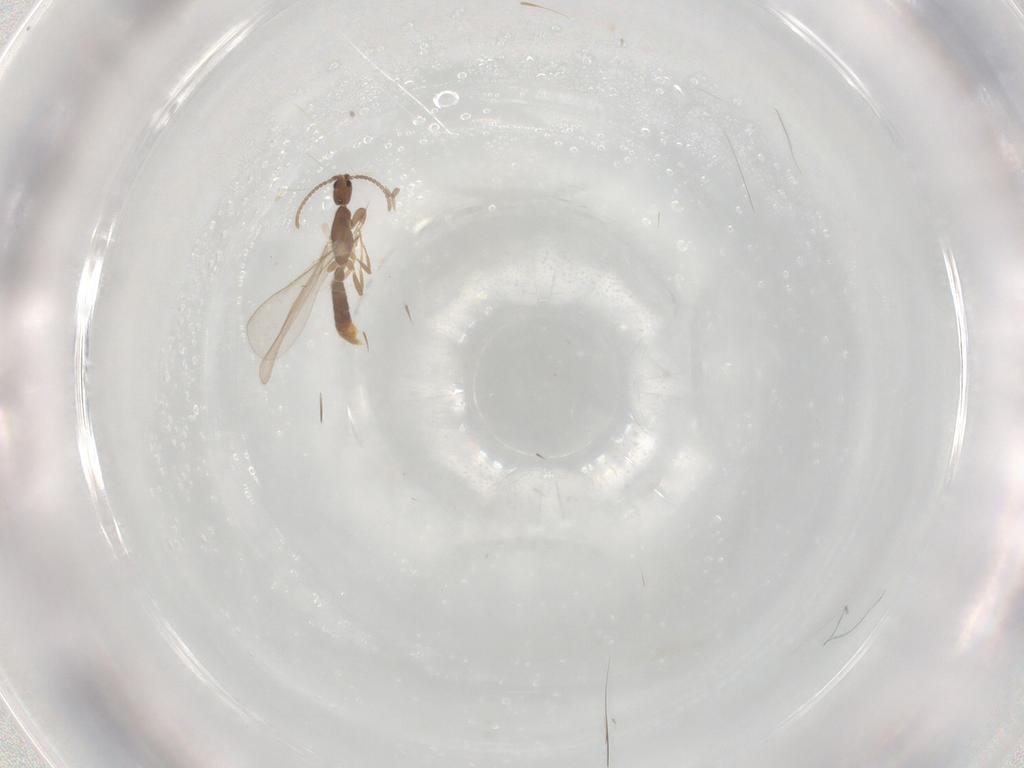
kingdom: Animalia
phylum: Arthropoda
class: Insecta
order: Hymenoptera
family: Formicidae
